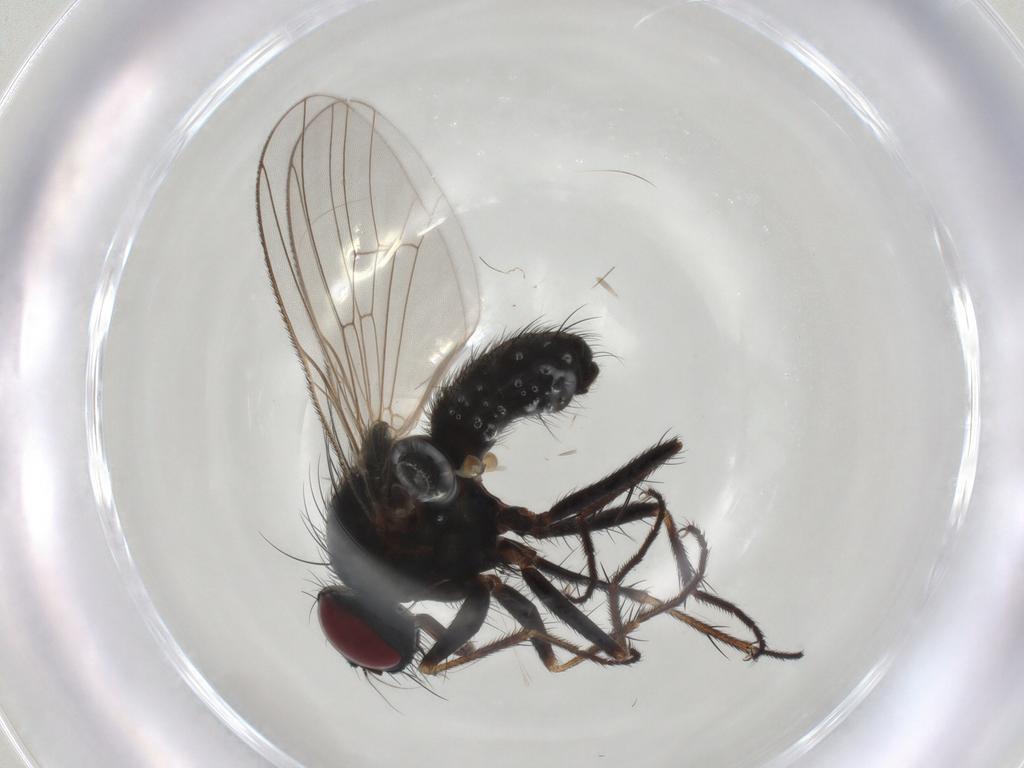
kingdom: Animalia
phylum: Arthropoda
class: Insecta
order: Diptera
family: Muscidae
